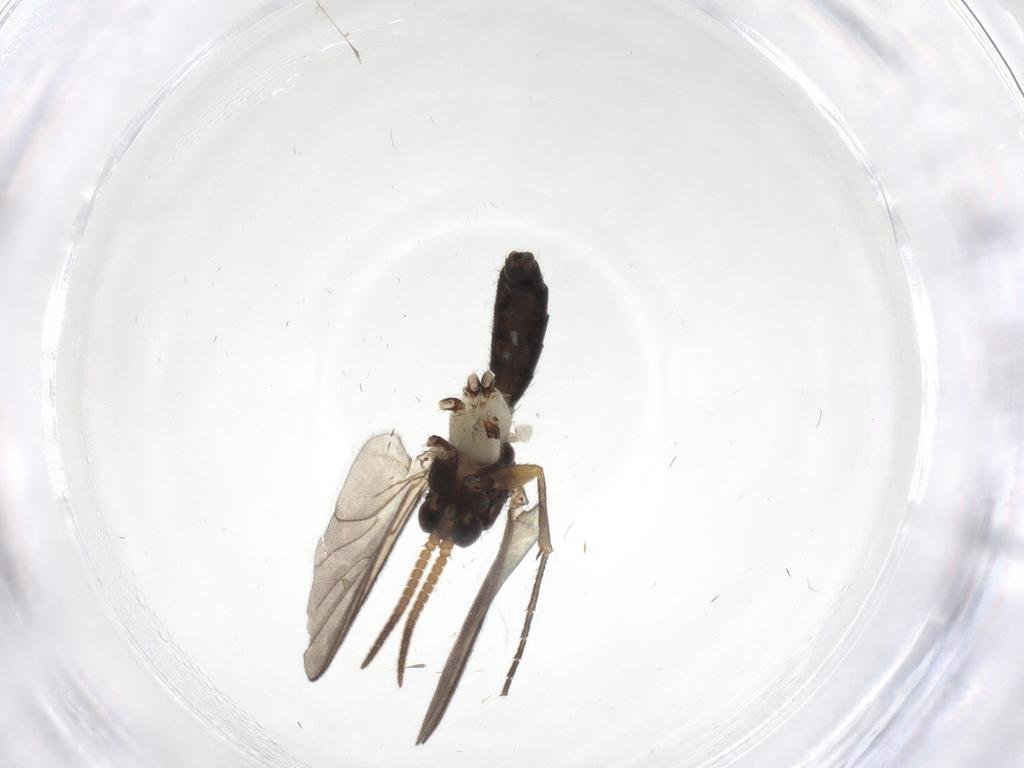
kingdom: Animalia
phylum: Arthropoda
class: Insecta
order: Diptera
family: Mycetophilidae
